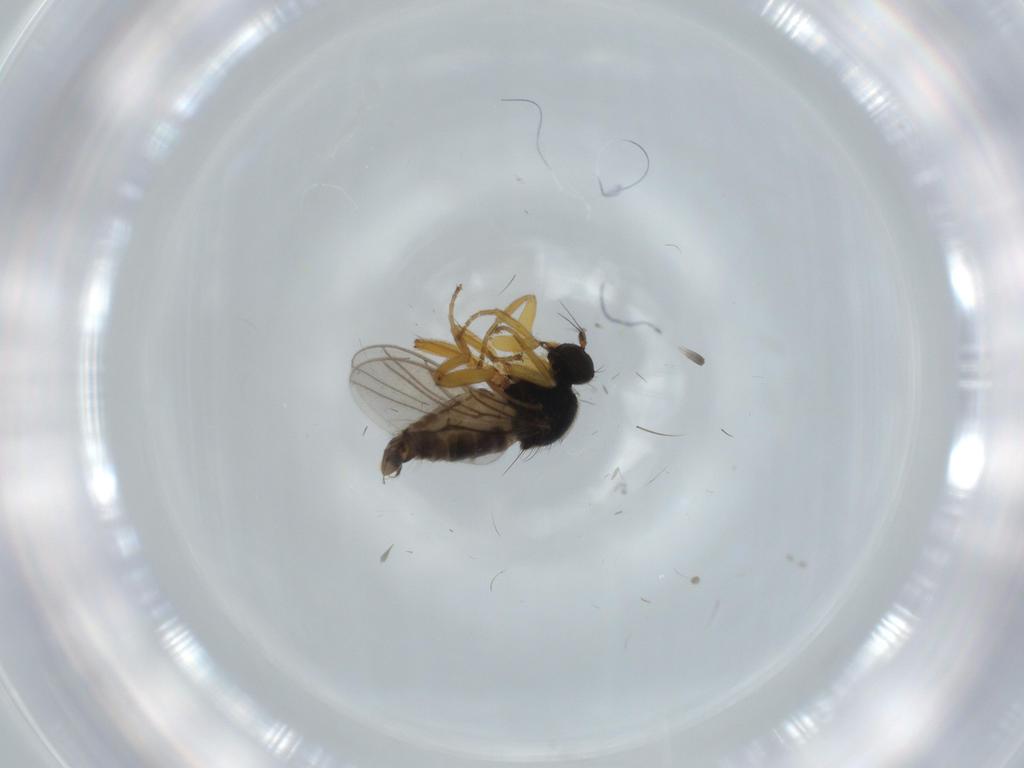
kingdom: Animalia
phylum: Arthropoda
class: Insecta
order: Diptera
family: Hybotidae
